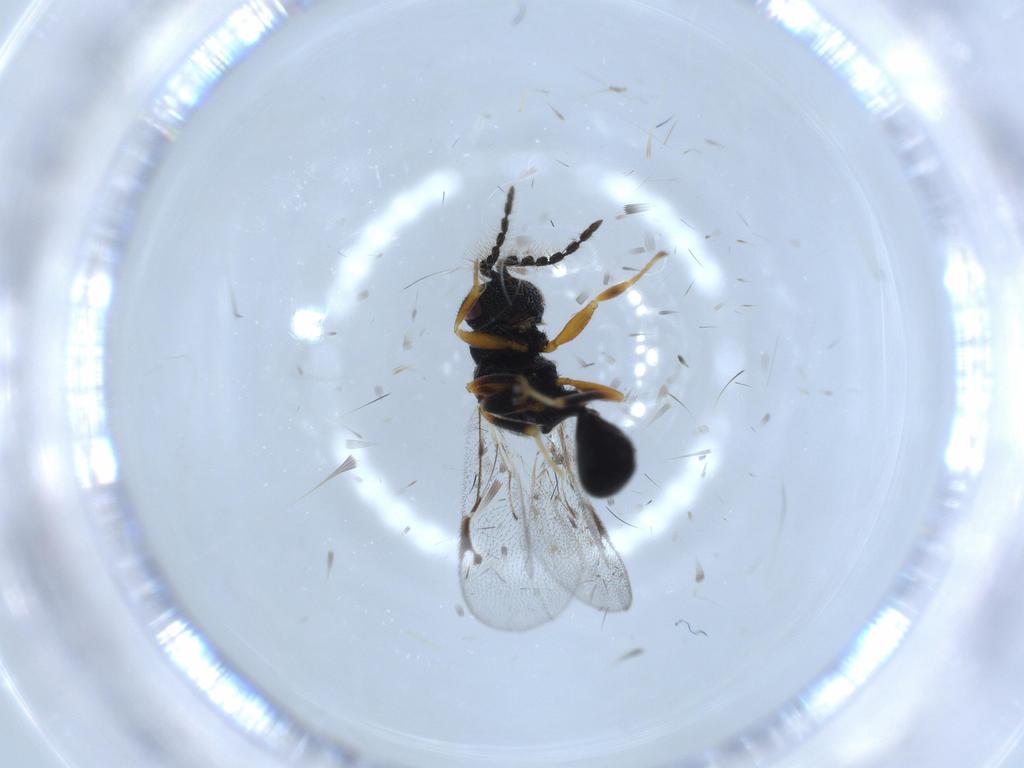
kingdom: Animalia
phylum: Arthropoda
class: Insecta
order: Hymenoptera
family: Eurytomidae
